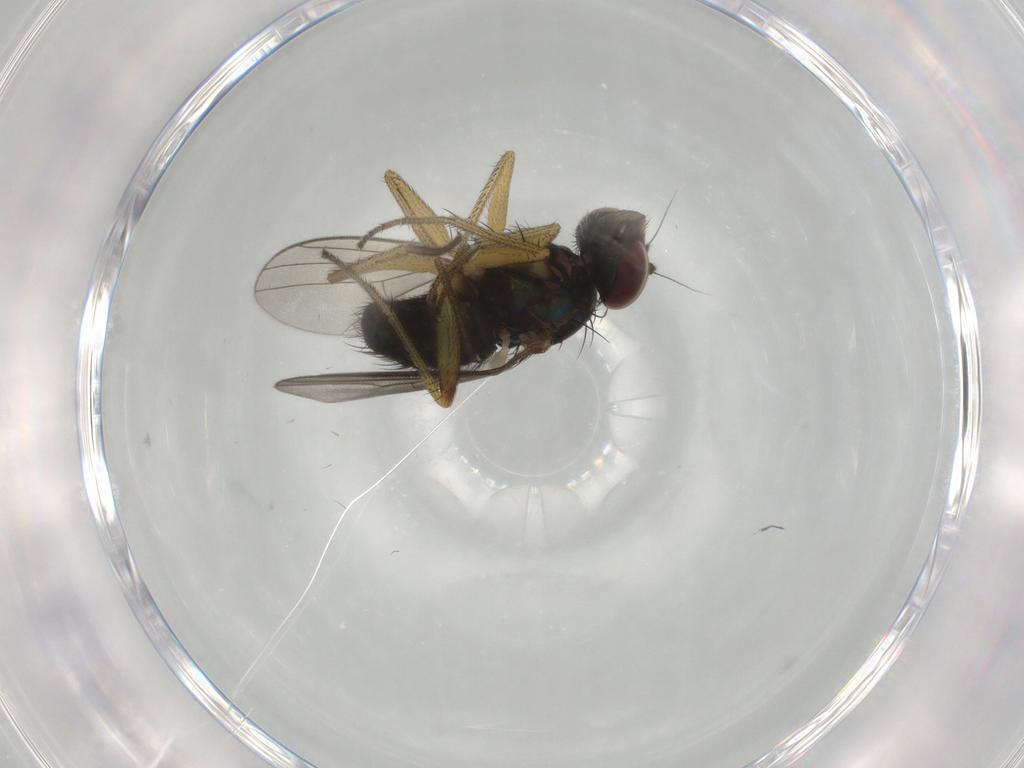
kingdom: Animalia
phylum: Arthropoda
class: Insecta
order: Diptera
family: Dolichopodidae
